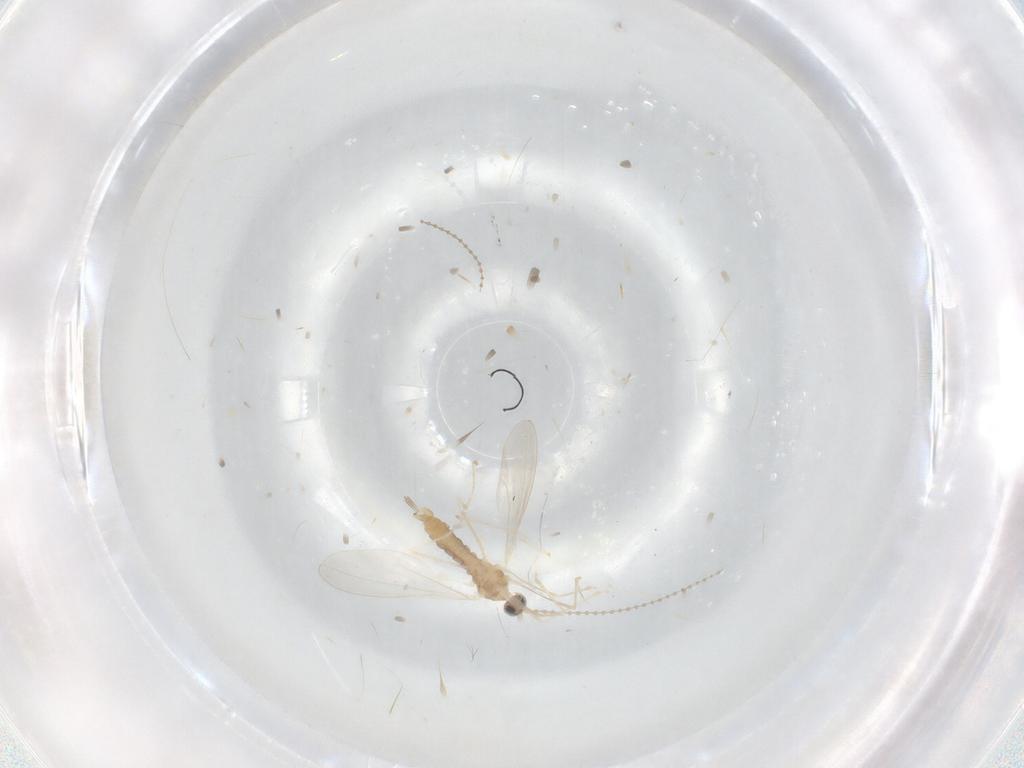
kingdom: Animalia
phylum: Arthropoda
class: Insecta
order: Diptera
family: Cecidomyiidae
